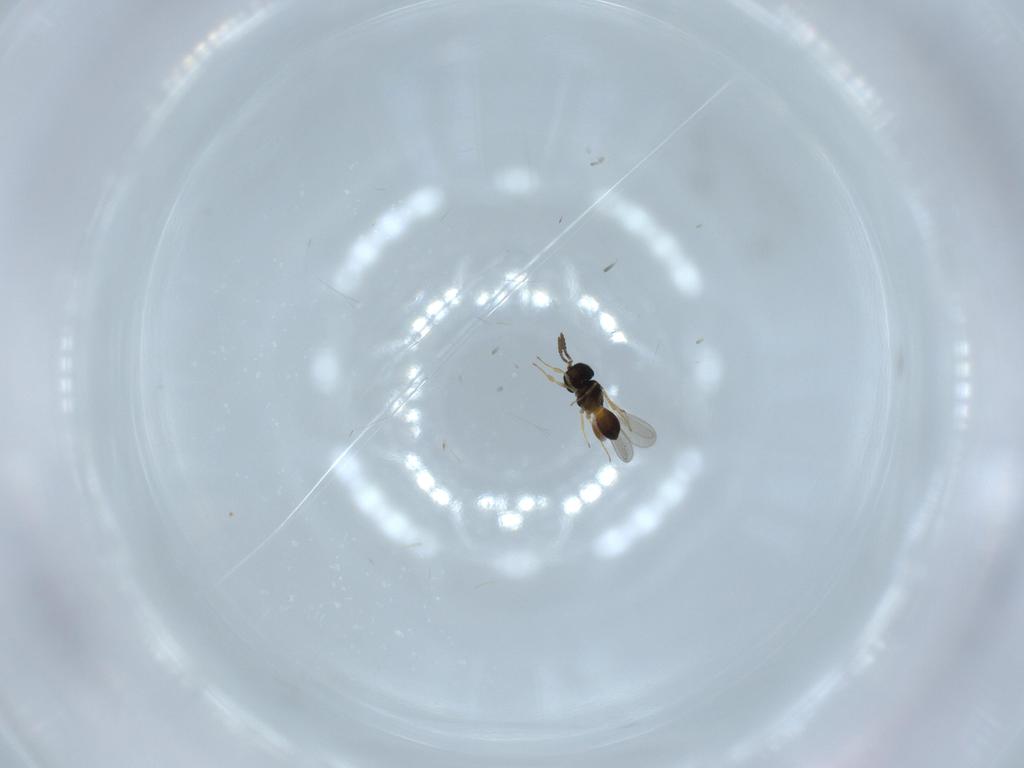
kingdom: Animalia
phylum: Arthropoda
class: Insecta
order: Hymenoptera
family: Scelionidae
